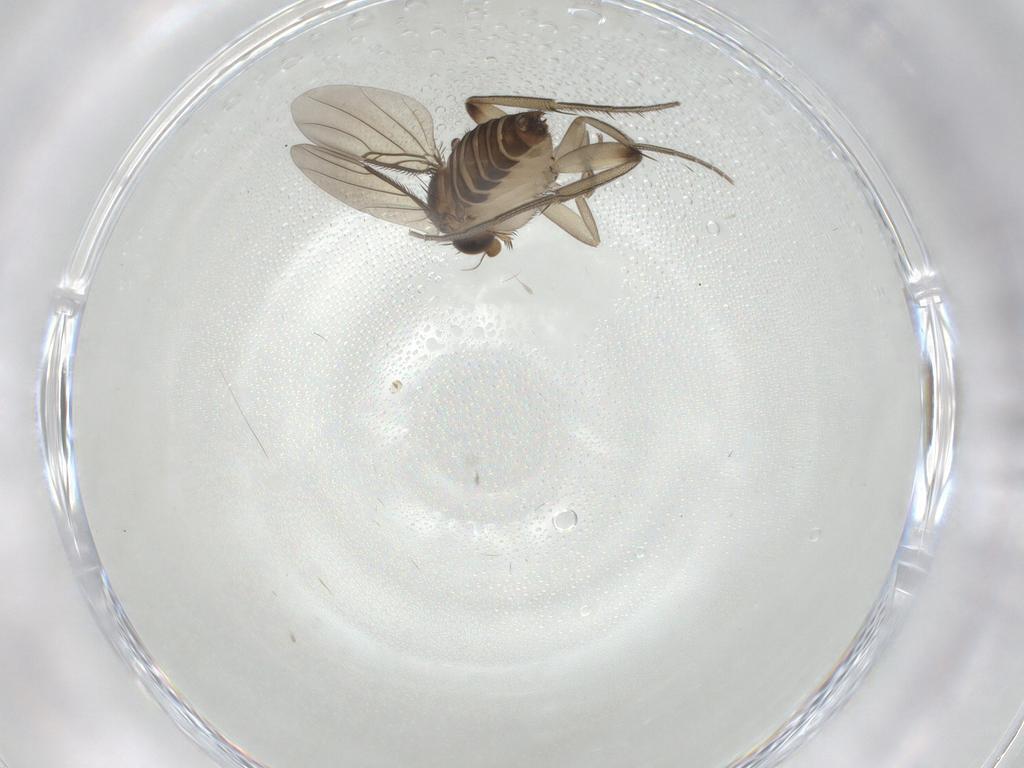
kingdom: Animalia
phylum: Arthropoda
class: Insecta
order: Diptera
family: Phoridae
